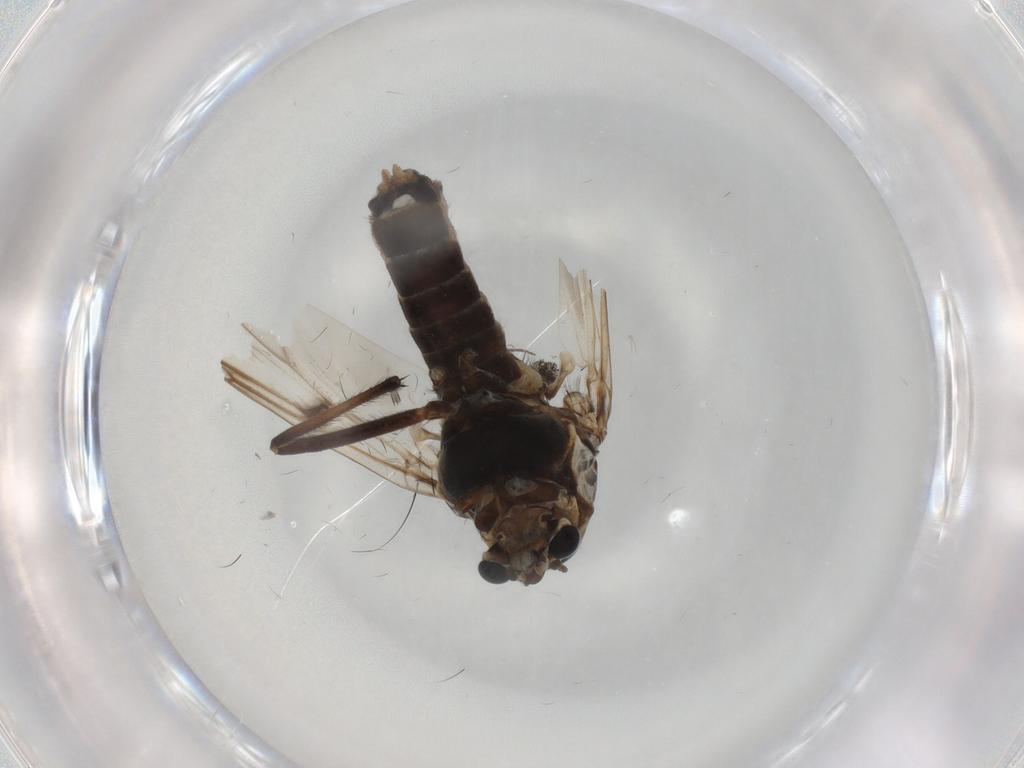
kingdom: Animalia
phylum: Arthropoda
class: Insecta
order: Diptera
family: Chironomidae
